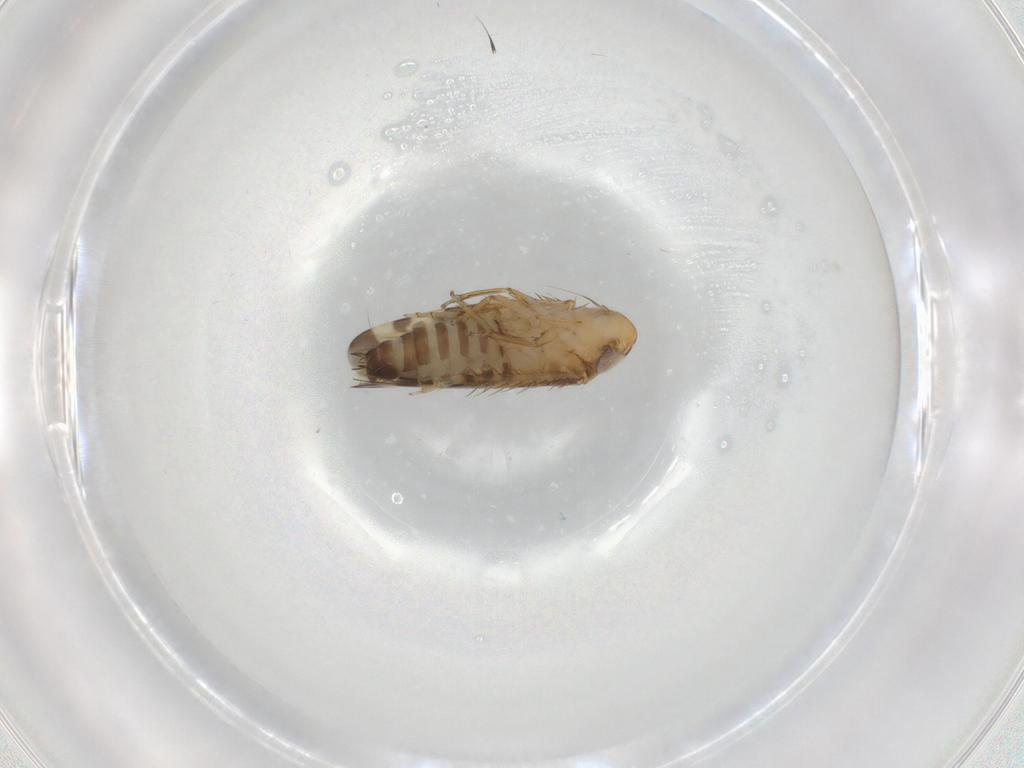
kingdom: Animalia
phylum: Arthropoda
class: Insecta
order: Hemiptera
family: Cicadellidae
